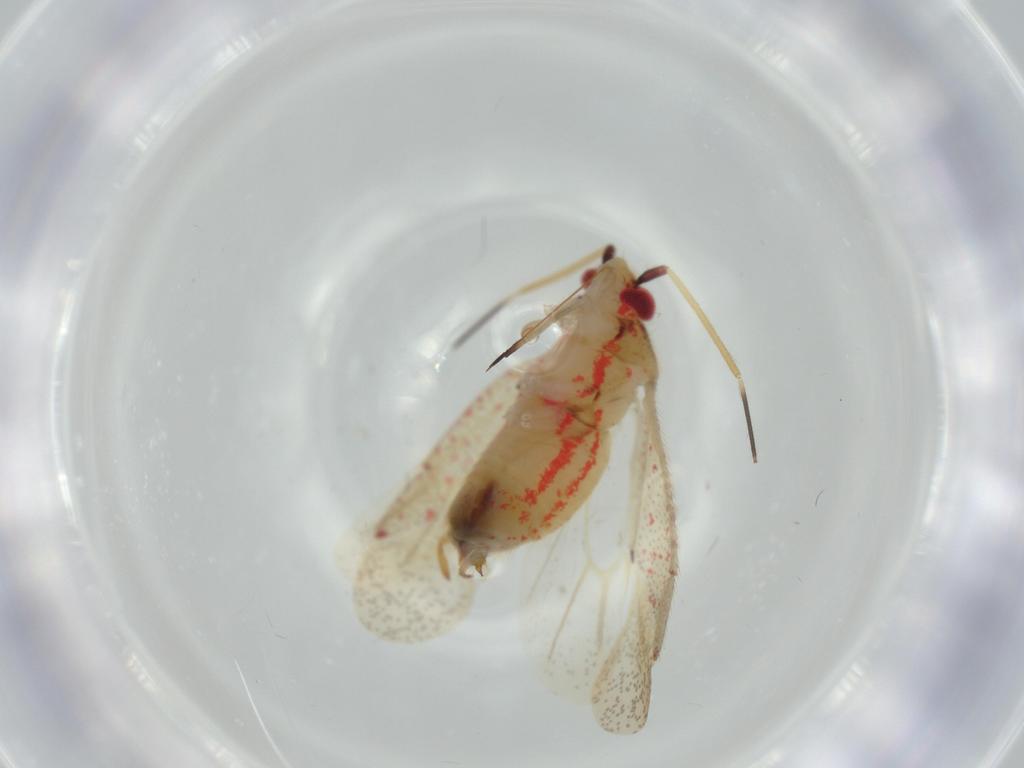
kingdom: Animalia
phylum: Arthropoda
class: Insecta
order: Hemiptera
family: Miridae
